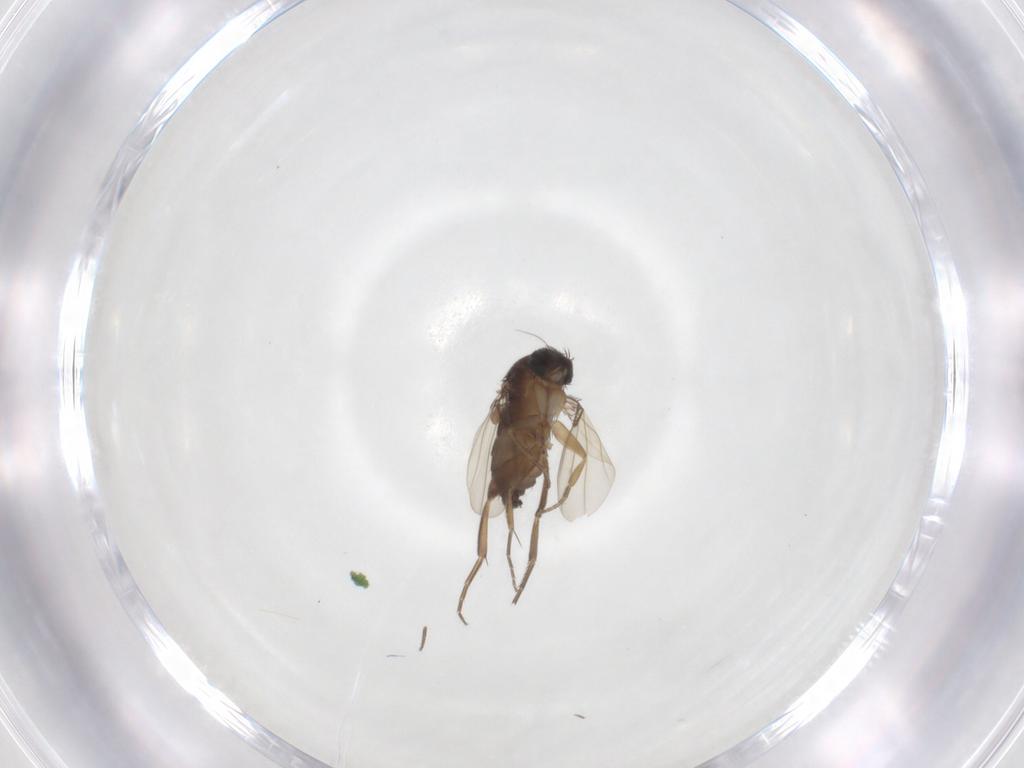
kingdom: Animalia
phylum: Arthropoda
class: Insecta
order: Diptera
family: Phoridae
